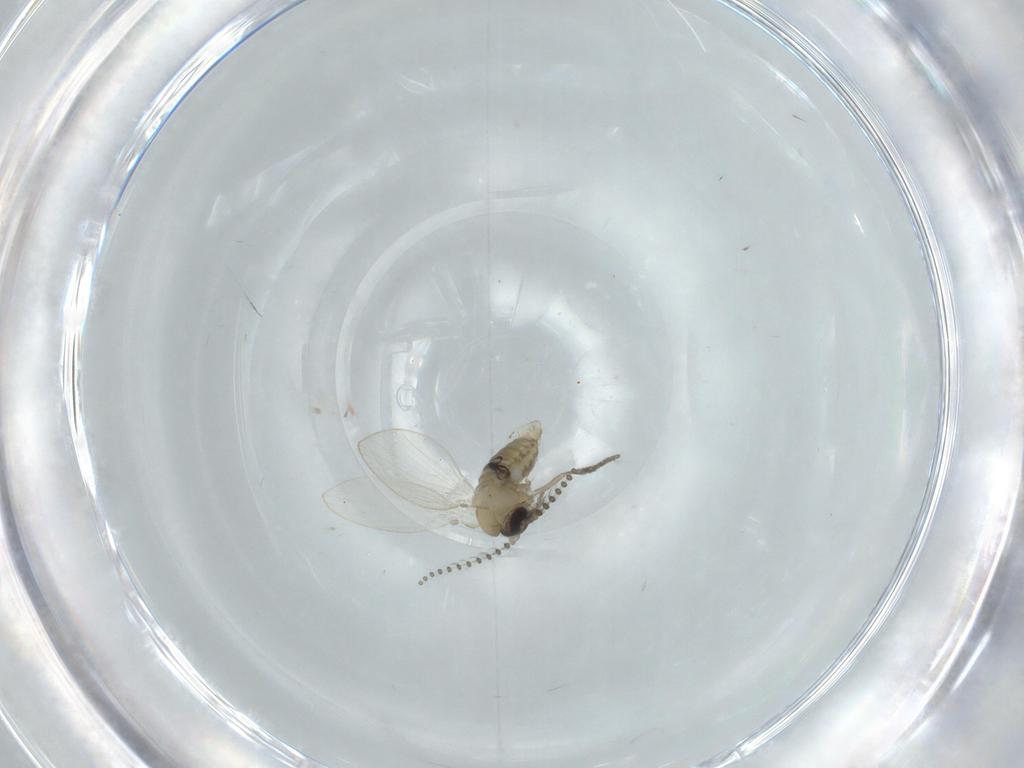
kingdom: Animalia
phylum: Arthropoda
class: Insecta
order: Diptera
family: Psychodidae
